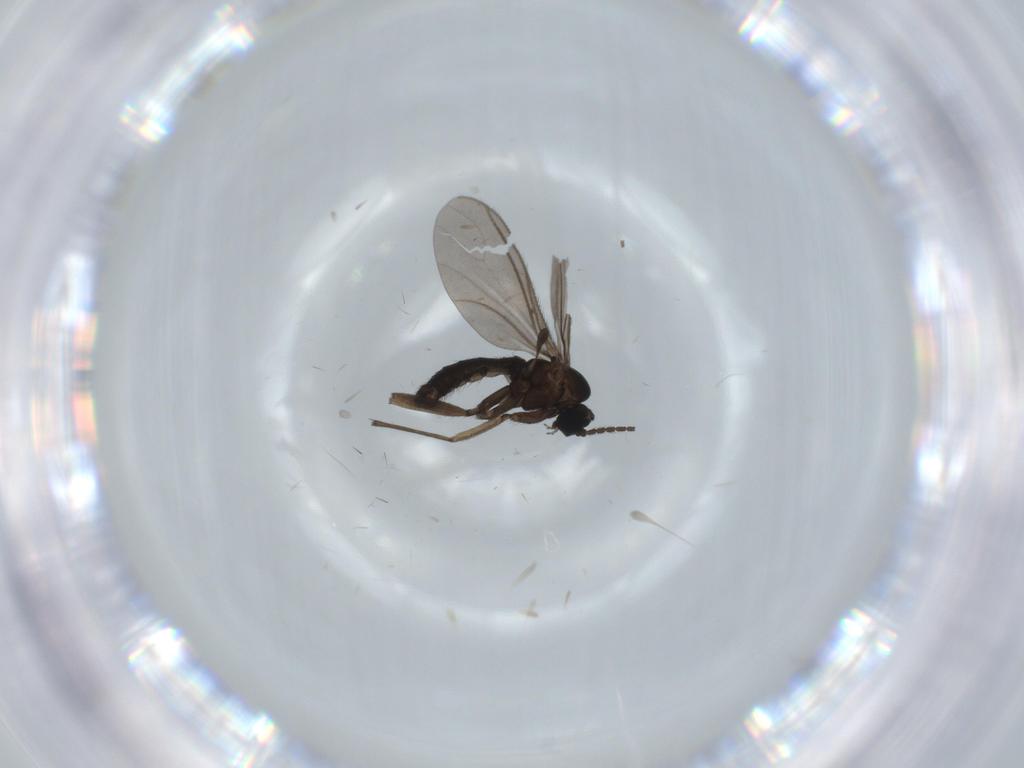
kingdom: Animalia
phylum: Arthropoda
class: Insecta
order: Diptera
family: Sciaridae
